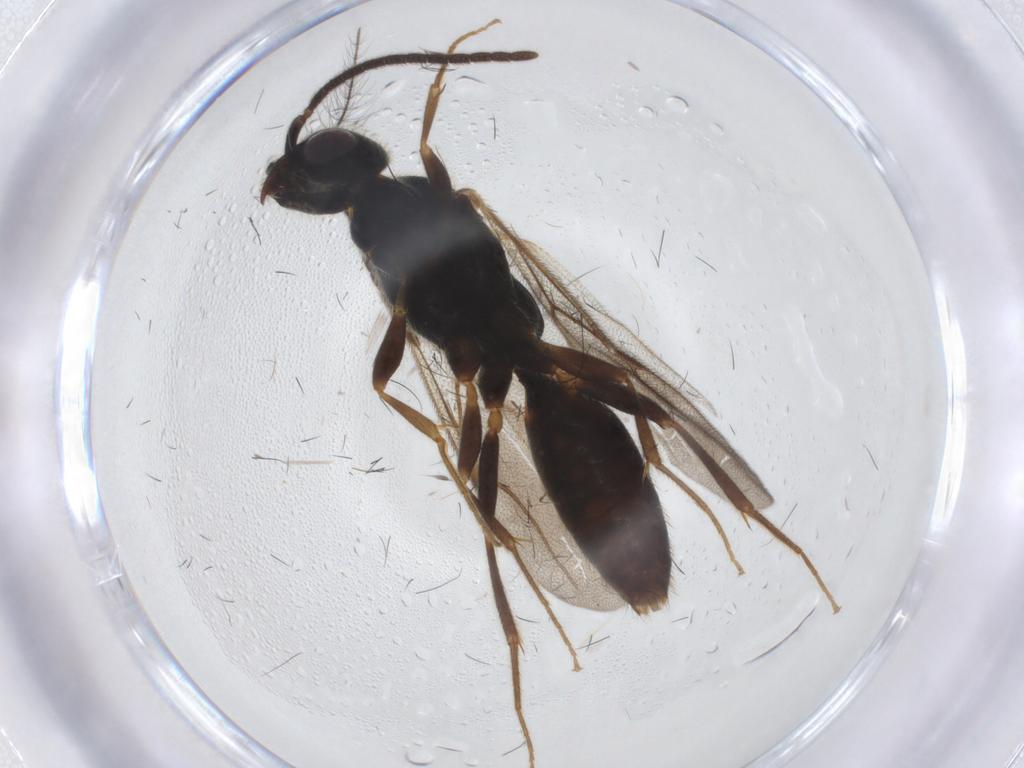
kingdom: Animalia
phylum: Arthropoda
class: Insecta
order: Hymenoptera
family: Bethylidae
